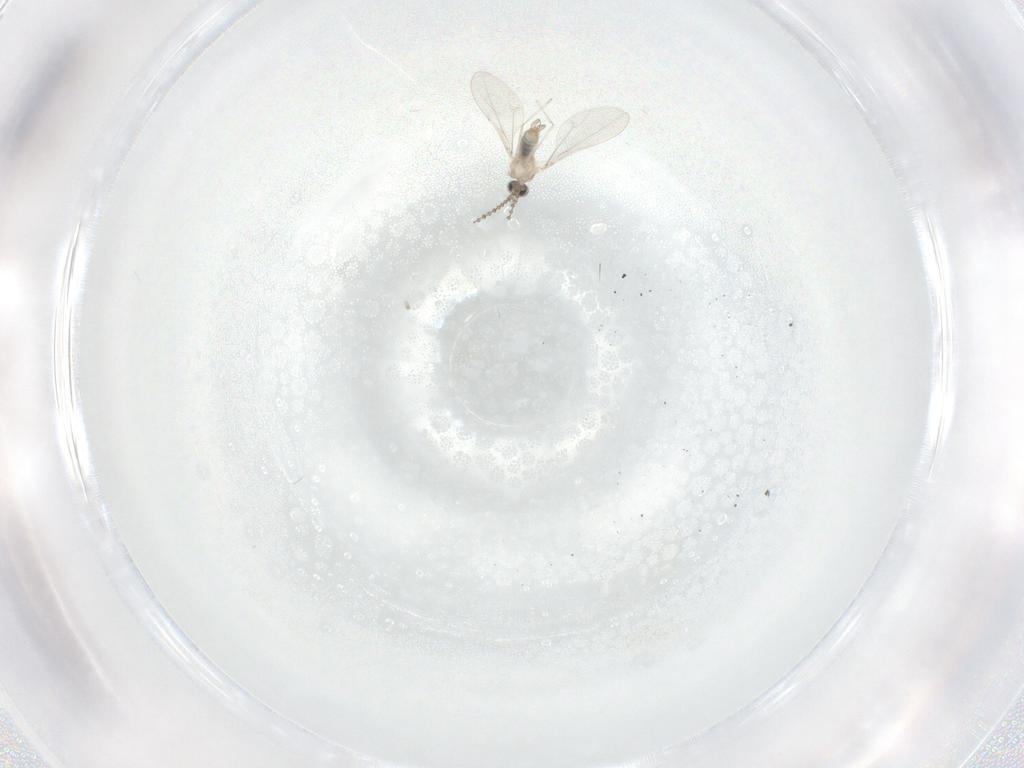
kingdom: Animalia
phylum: Arthropoda
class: Insecta
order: Diptera
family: Cecidomyiidae
